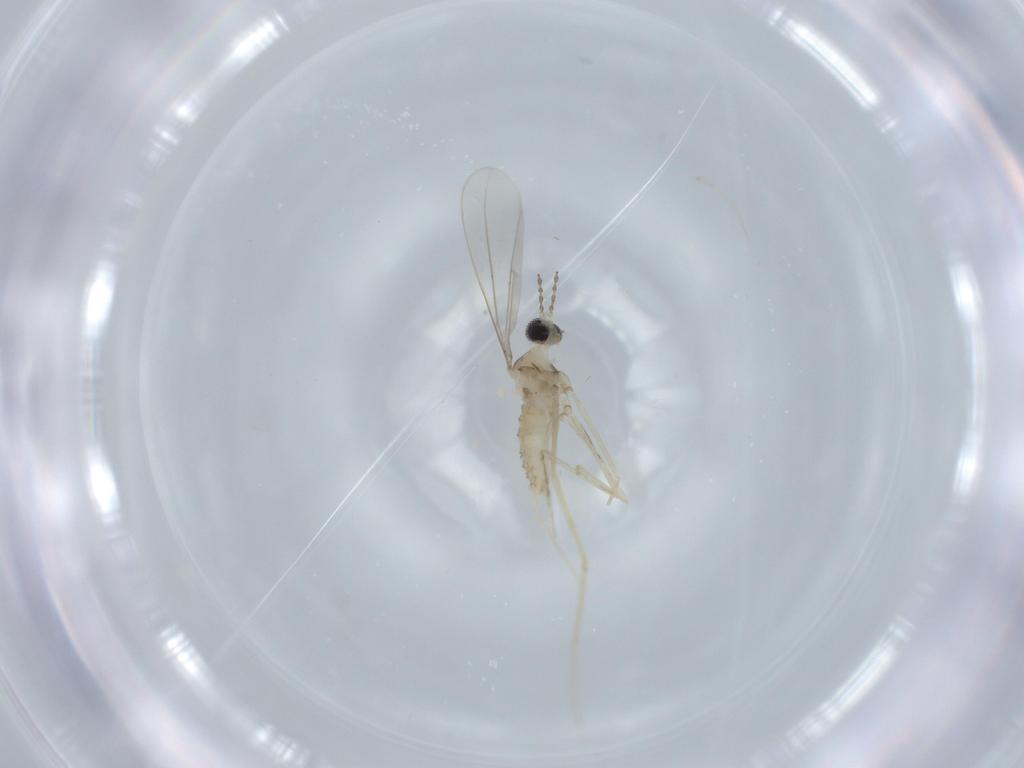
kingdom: Animalia
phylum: Arthropoda
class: Insecta
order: Diptera
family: Cecidomyiidae
